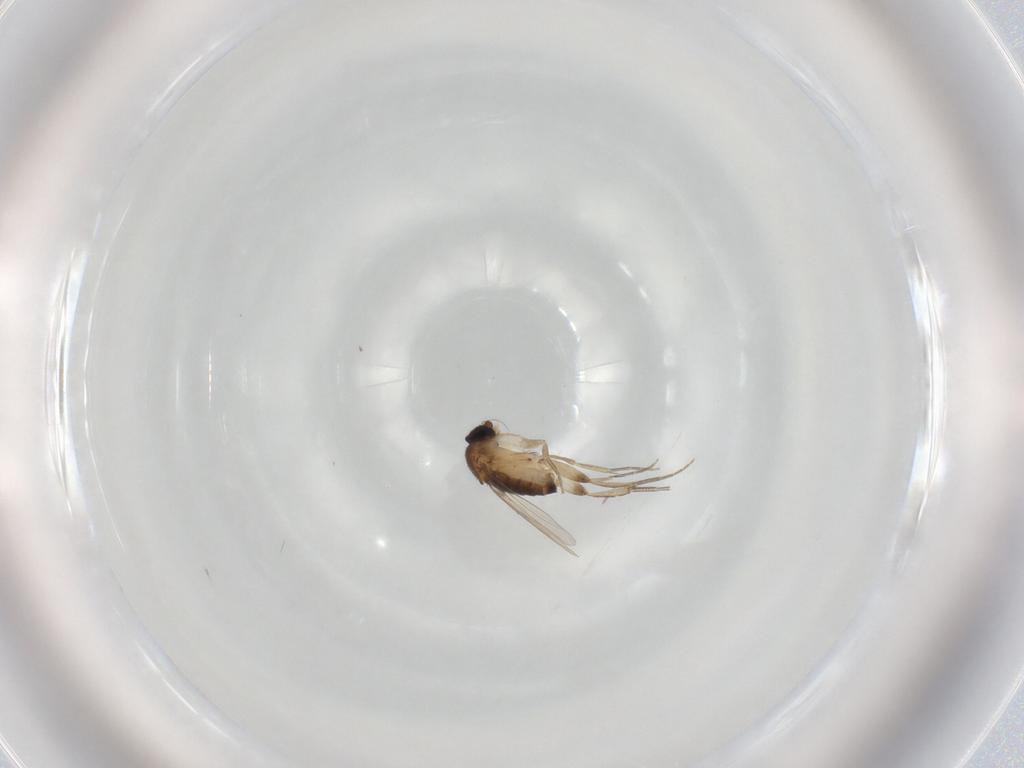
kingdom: Animalia
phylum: Arthropoda
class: Insecta
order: Diptera
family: Phoridae
